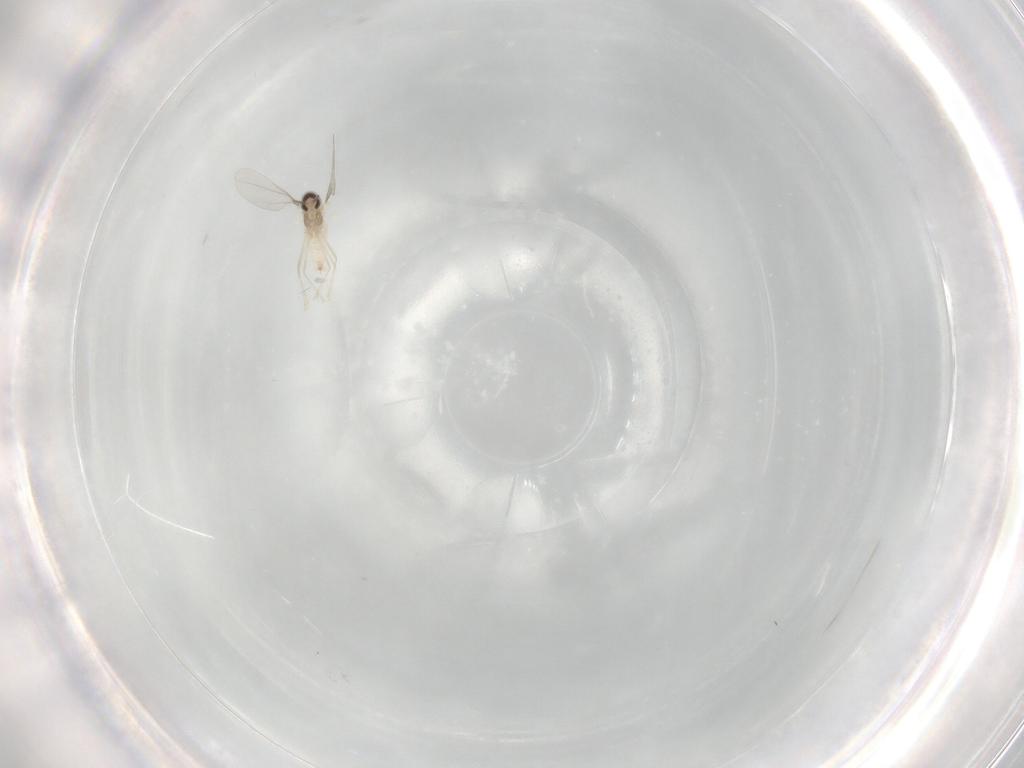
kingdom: Animalia
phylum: Arthropoda
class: Insecta
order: Diptera
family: Cecidomyiidae
